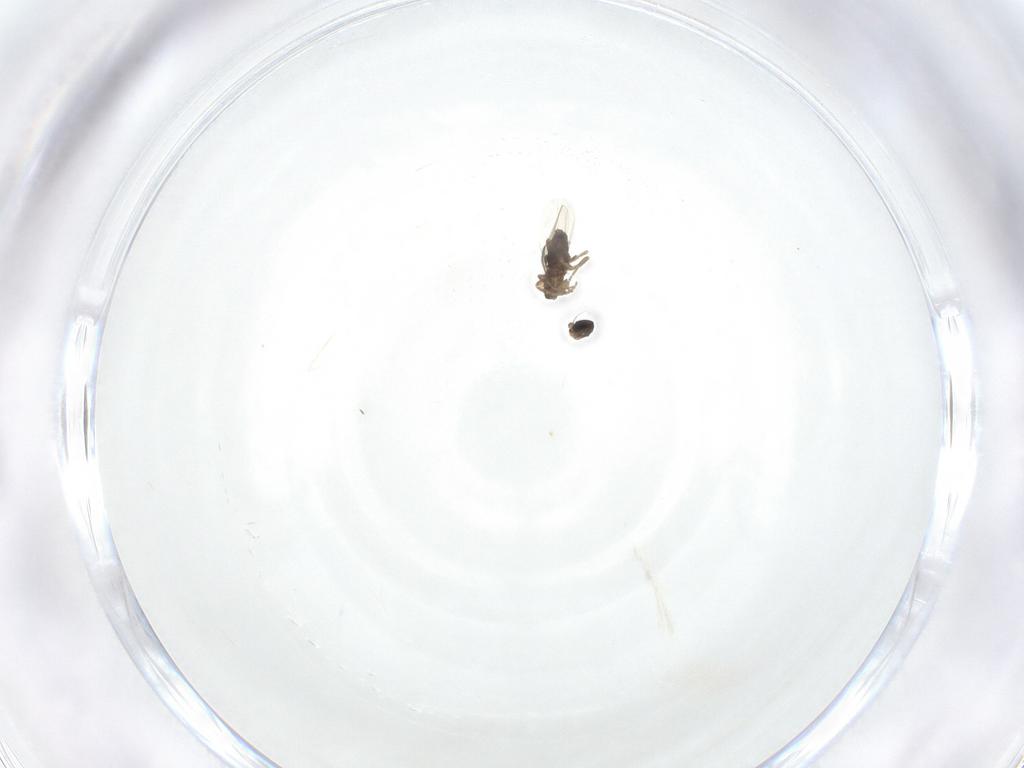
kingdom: Animalia
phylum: Arthropoda
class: Insecta
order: Diptera
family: Phoridae
